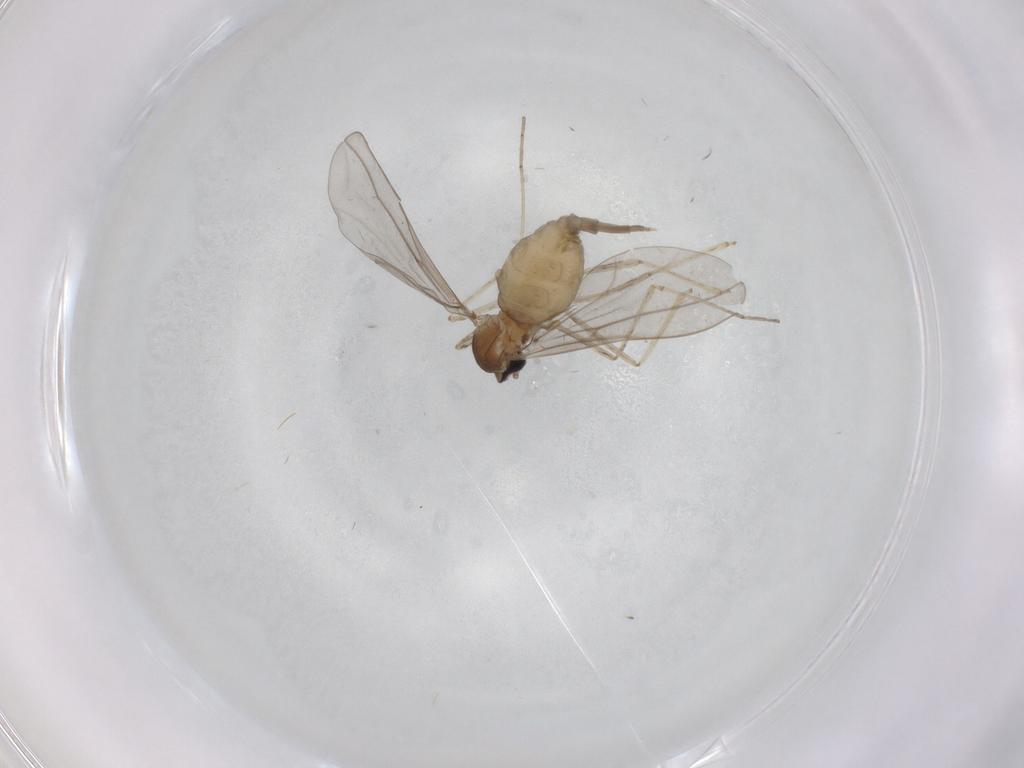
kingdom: Animalia
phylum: Arthropoda
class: Insecta
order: Diptera
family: Cecidomyiidae
